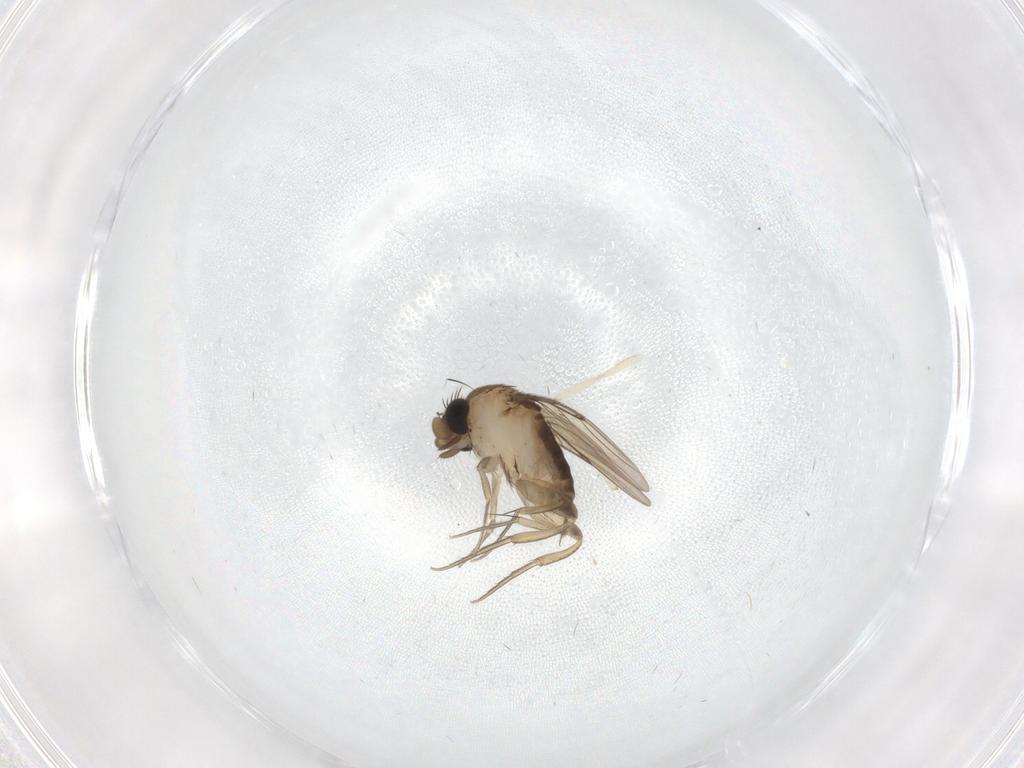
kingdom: Animalia
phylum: Arthropoda
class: Insecta
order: Diptera
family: Phoridae
